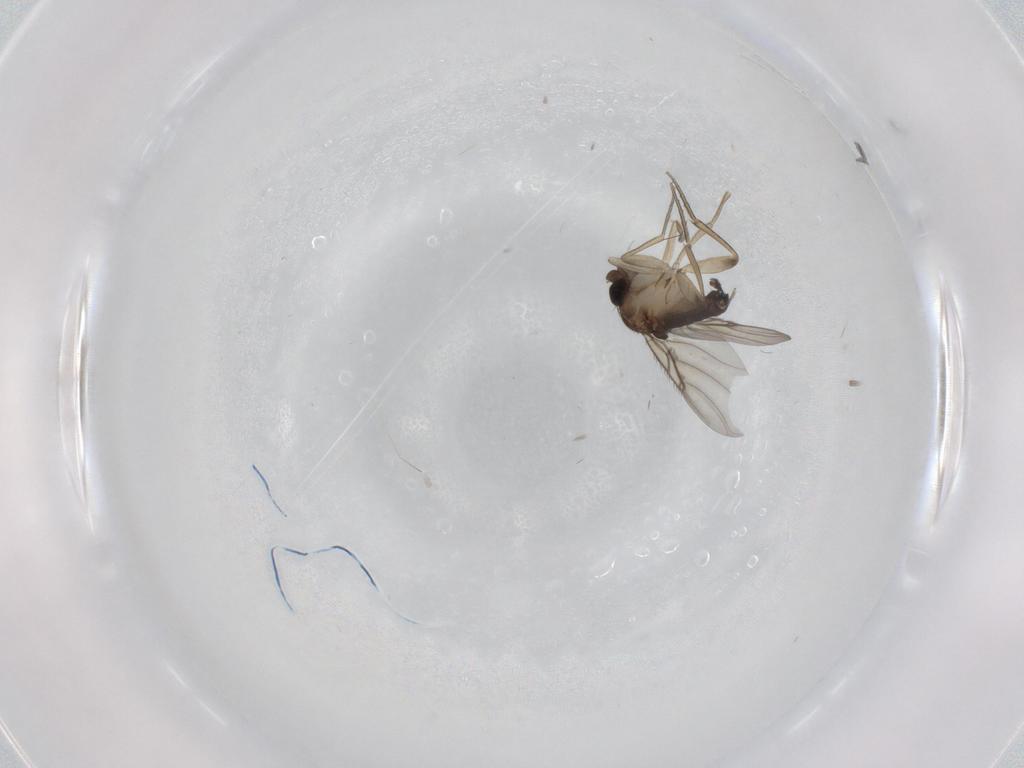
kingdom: Animalia
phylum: Arthropoda
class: Insecta
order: Diptera
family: Phoridae
